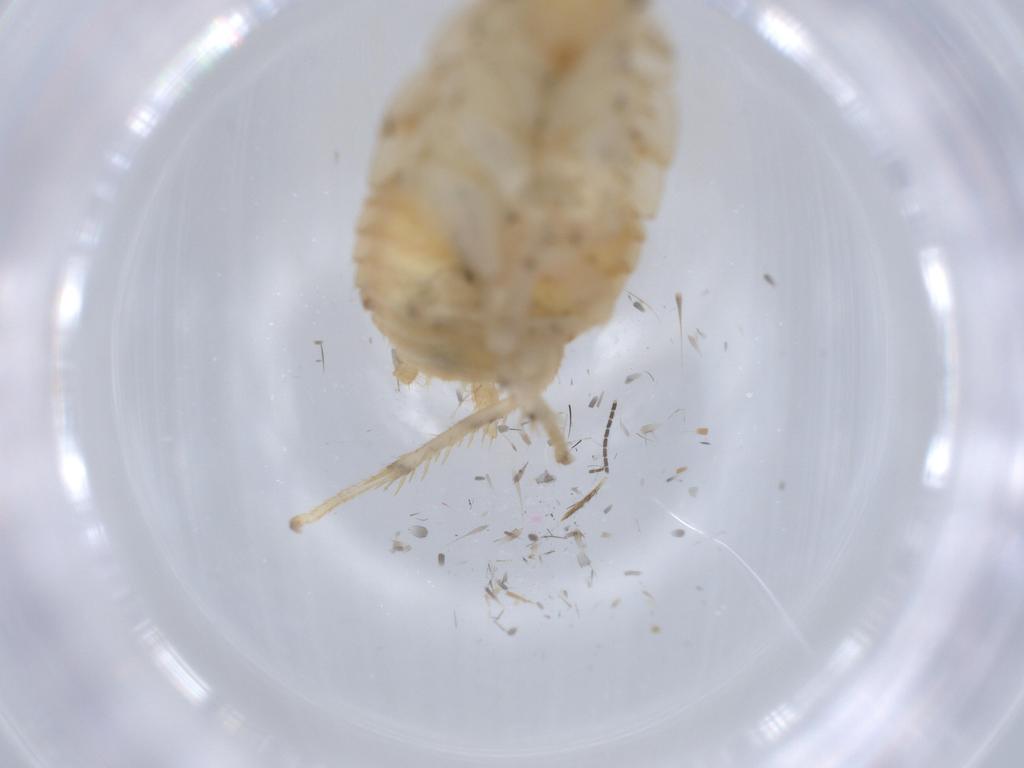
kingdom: Animalia
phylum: Arthropoda
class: Insecta
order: Blattodea
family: Ectobiidae
